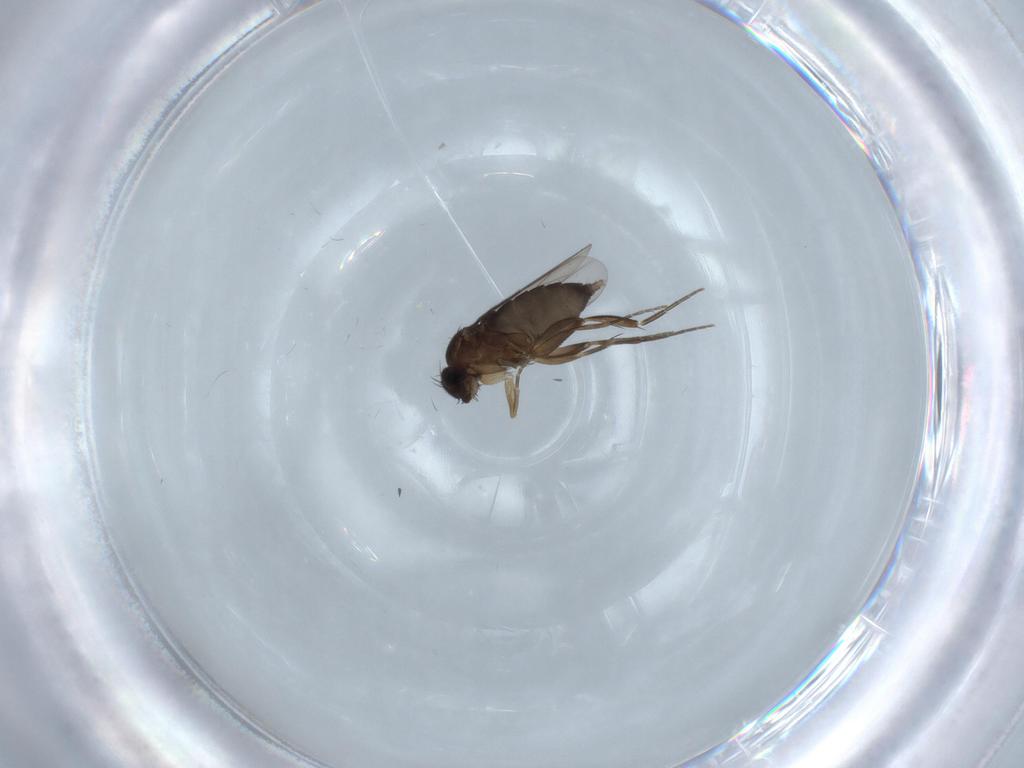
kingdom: Animalia
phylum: Arthropoda
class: Insecta
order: Diptera
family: Phoridae
